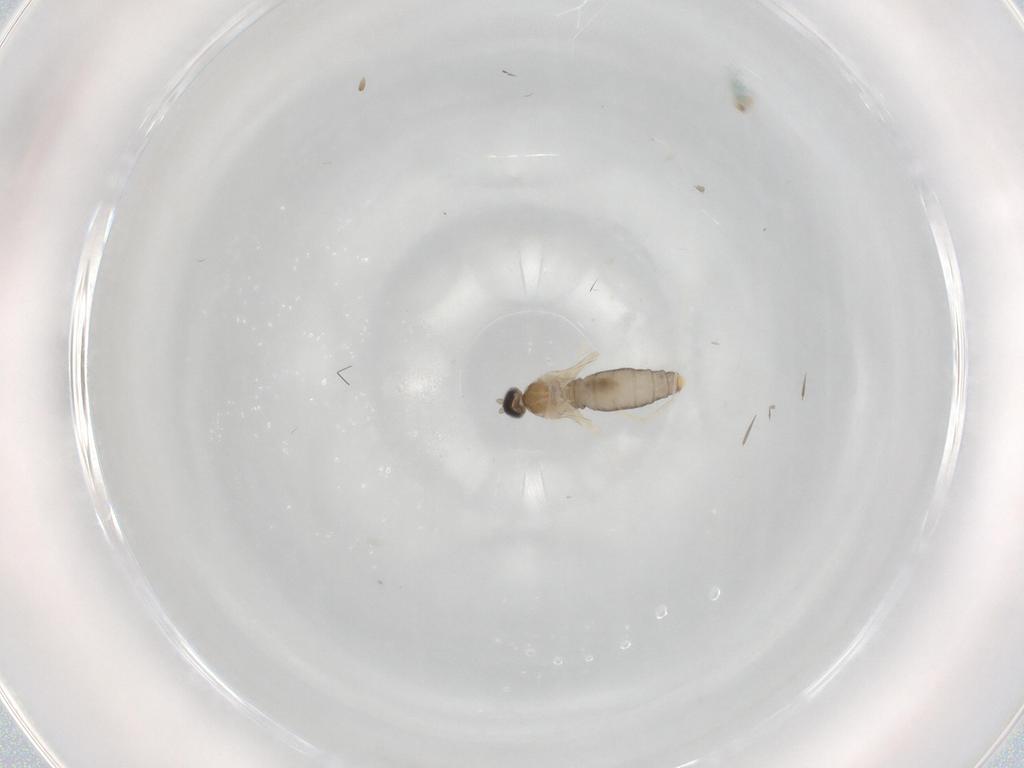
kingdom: Animalia
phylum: Arthropoda
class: Insecta
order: Diptera
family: Cecidomyiidae
